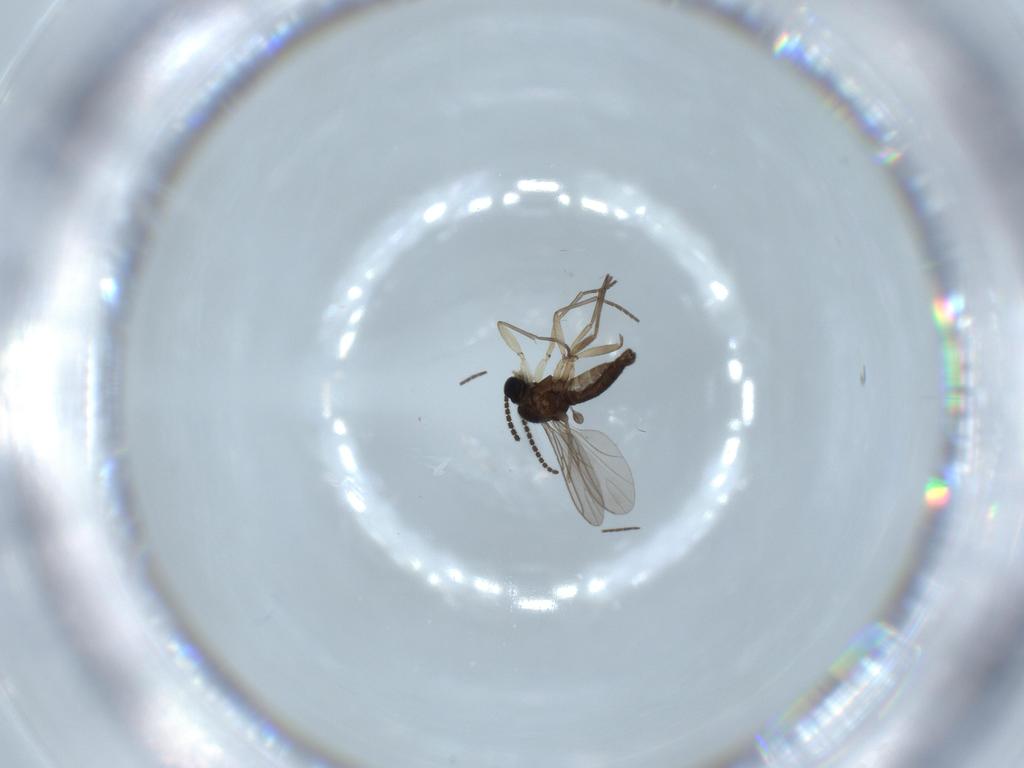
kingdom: Animalia
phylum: Arthropoda
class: Insecta
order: Diptera
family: Sciaridae
